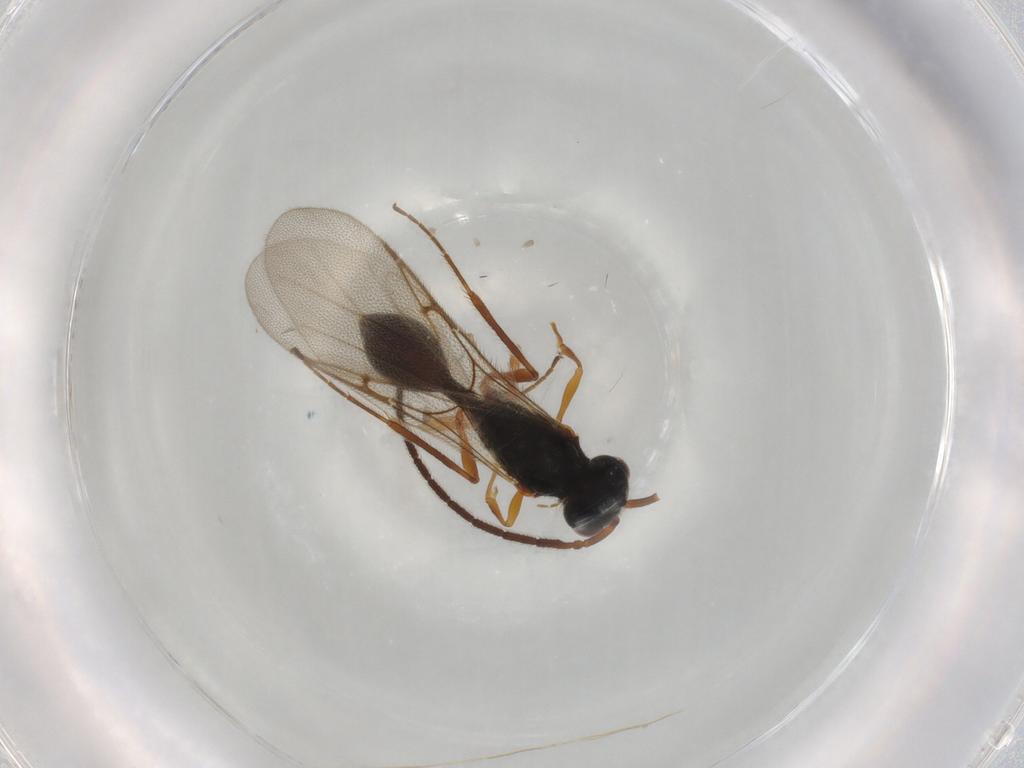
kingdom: Animalia
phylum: Arthropoda
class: Insecta
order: Hymenoptera
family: Diapriidae
